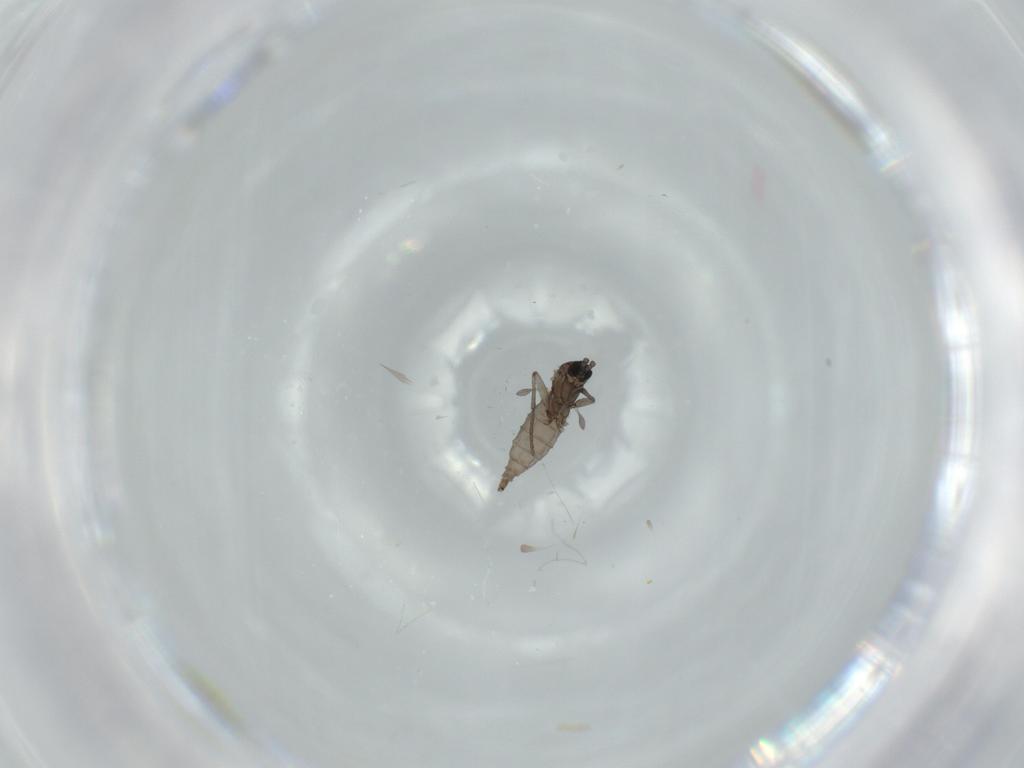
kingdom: Animalia
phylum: Arthropoda
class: Insecta
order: Diptera
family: Sciaridae
